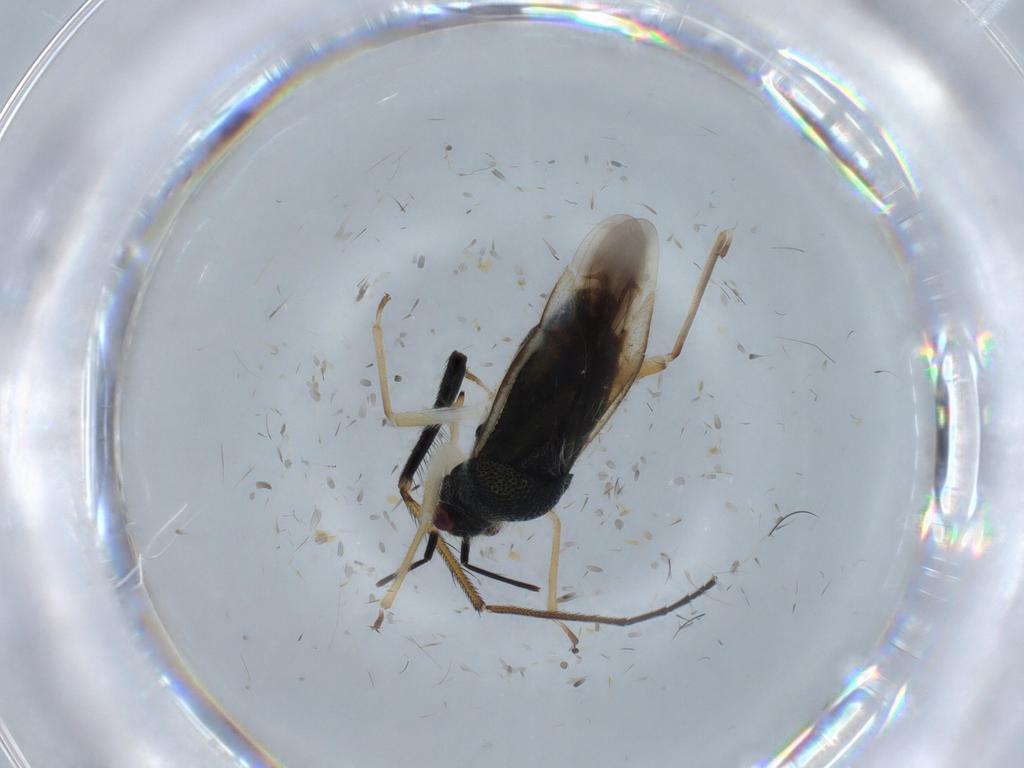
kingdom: Animalia
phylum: Arthropoda
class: Insecta
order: Hemiptera
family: Miridae
